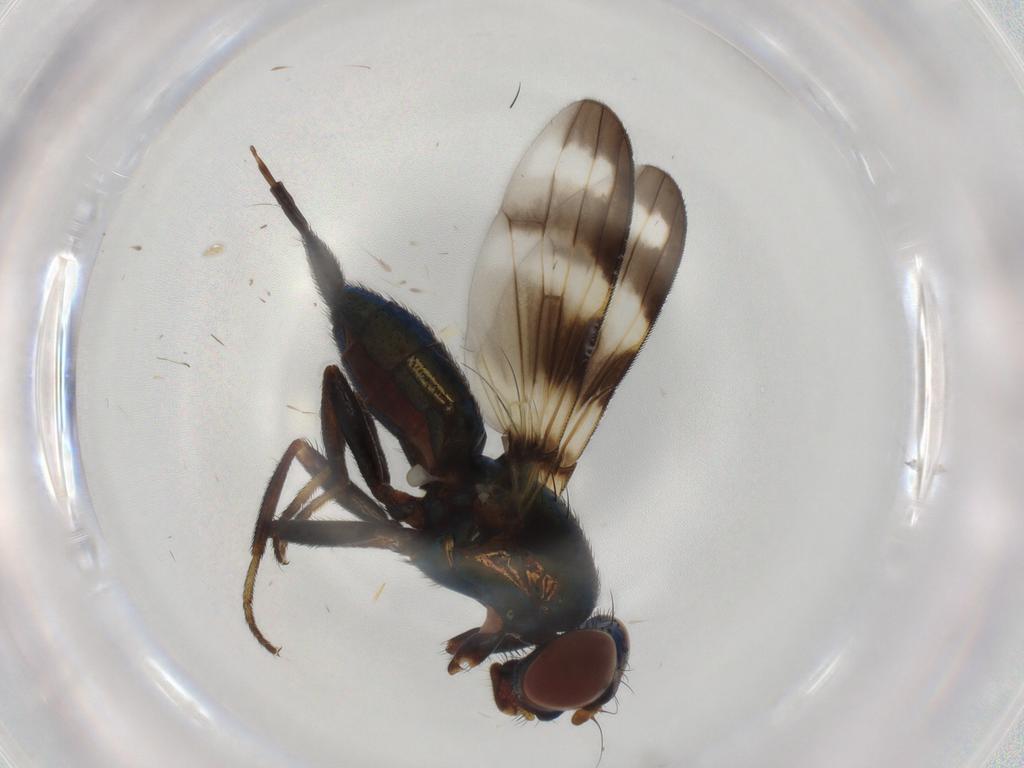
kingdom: Animalia
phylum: Arthropoda
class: Insecta
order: Diptera
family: Ulidiidae
